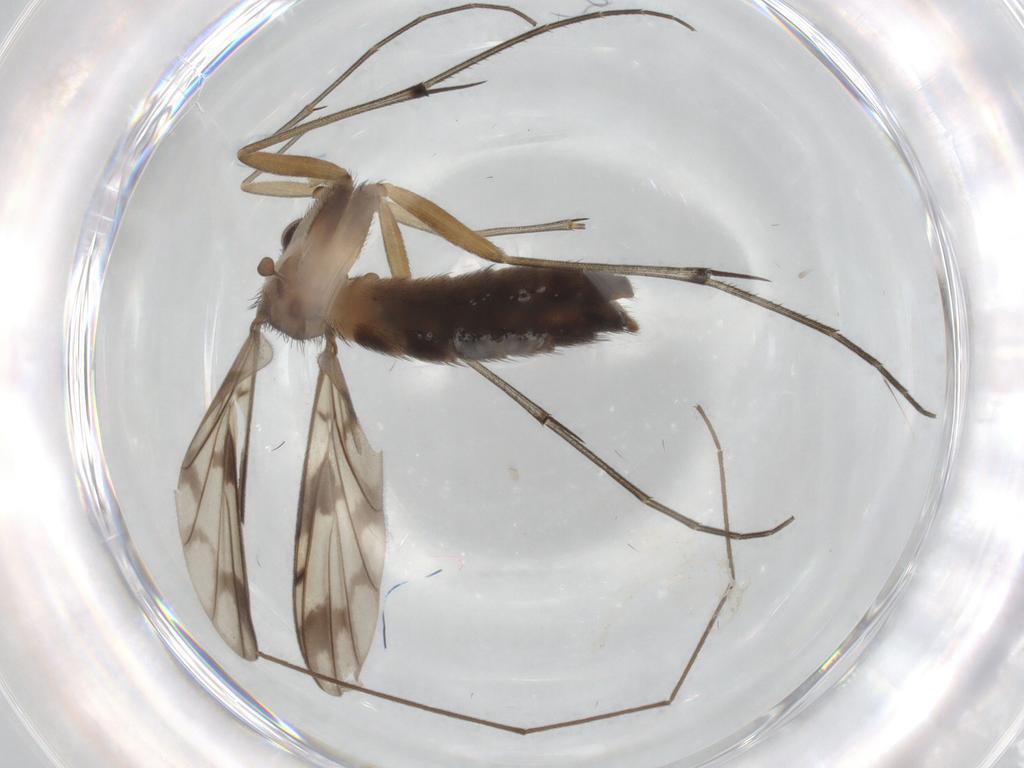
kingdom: Animalia
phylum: Arthropoda
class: Insecta
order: Diptera
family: Keroplatidae
